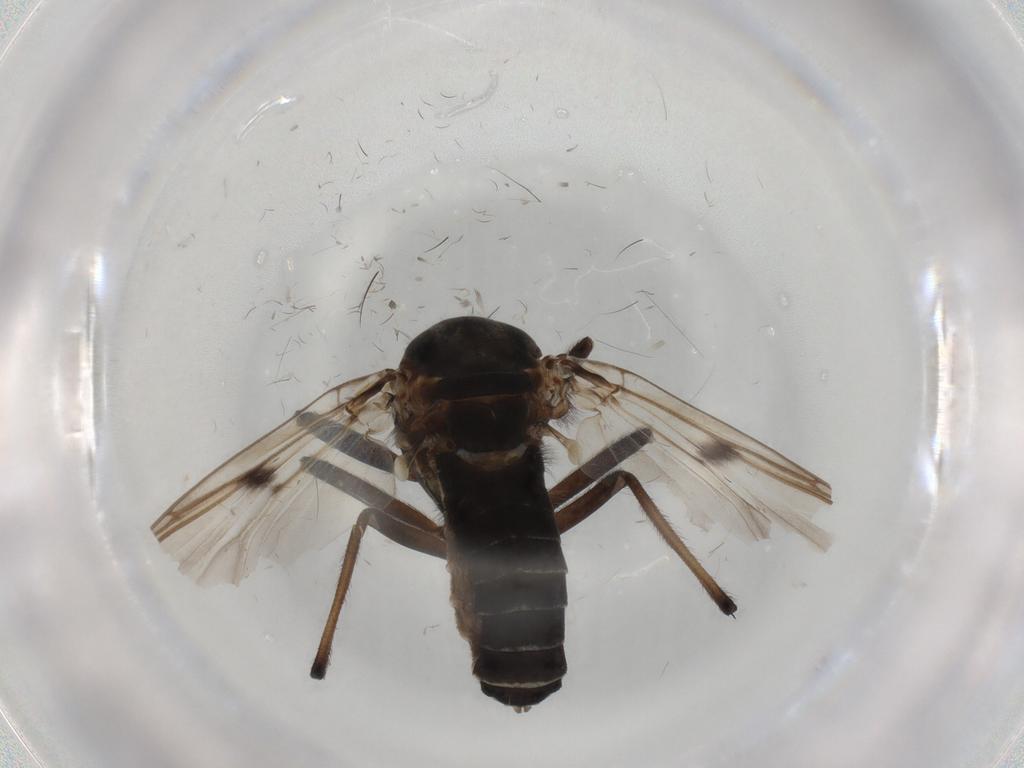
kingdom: Animalia
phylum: Arthropoda
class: Insecta
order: Diptera
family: Chironomidae
